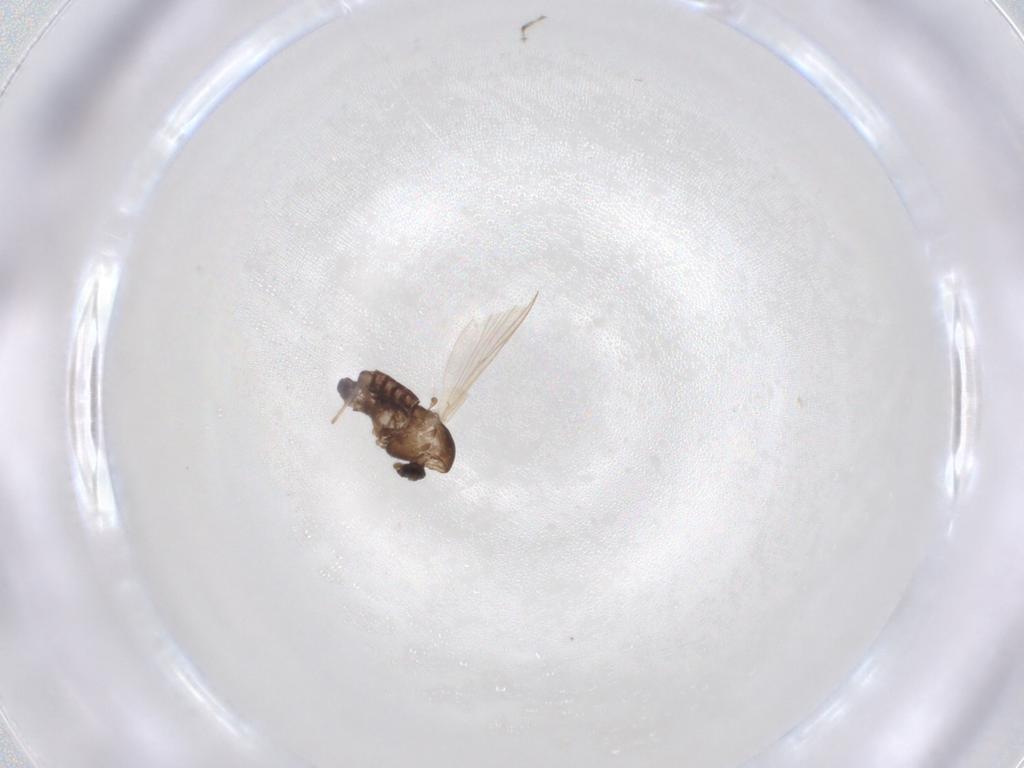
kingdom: Animalia
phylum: Arthropoda
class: Insecta
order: Diptera
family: Chironomidae
